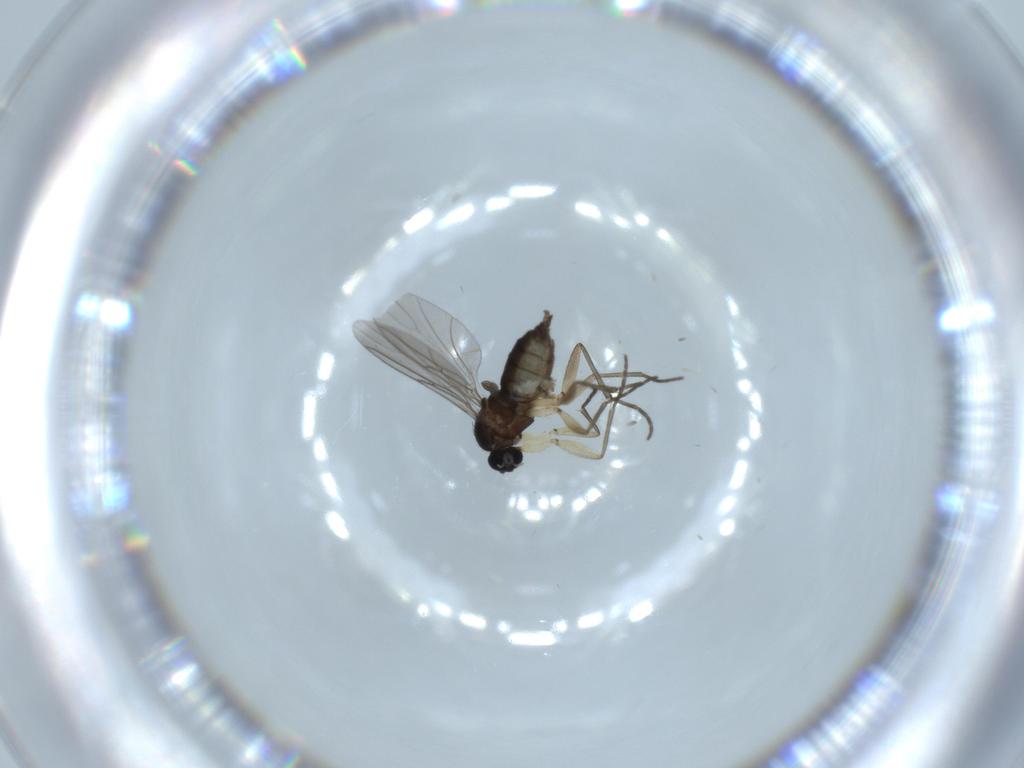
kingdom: Animalia
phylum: Arthropoda
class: Insecta
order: Diptera
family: Sciaridae
